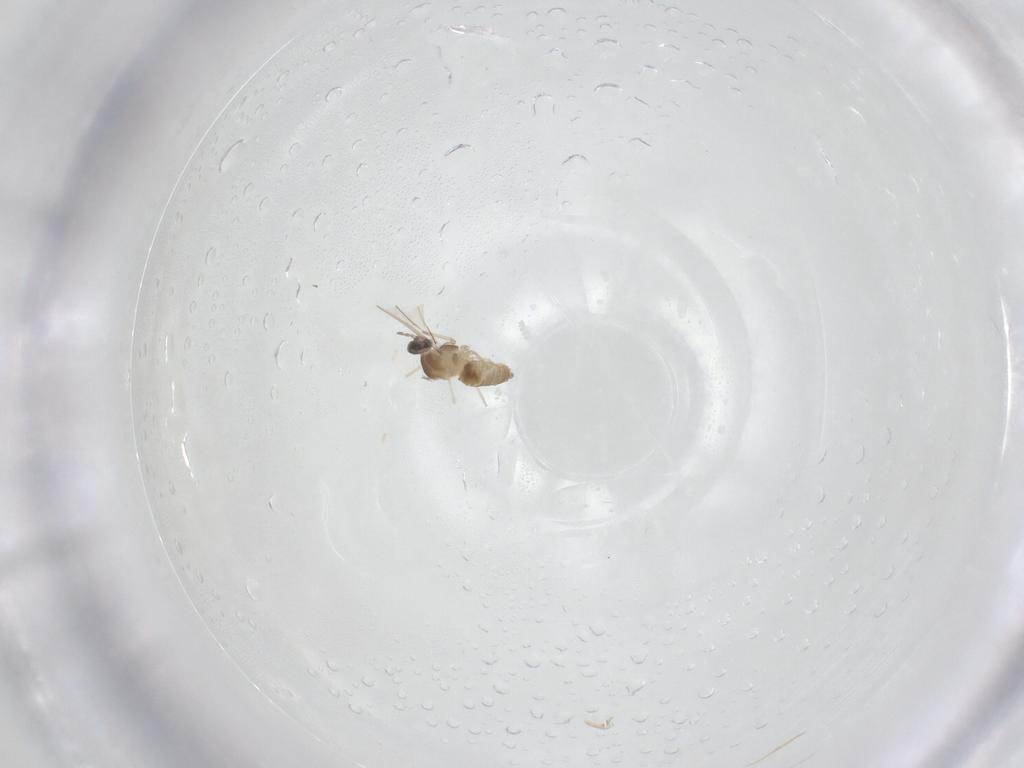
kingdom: Animalia
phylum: Arthropoda
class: Insecta
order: Diptera
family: Cecidomyiidae
